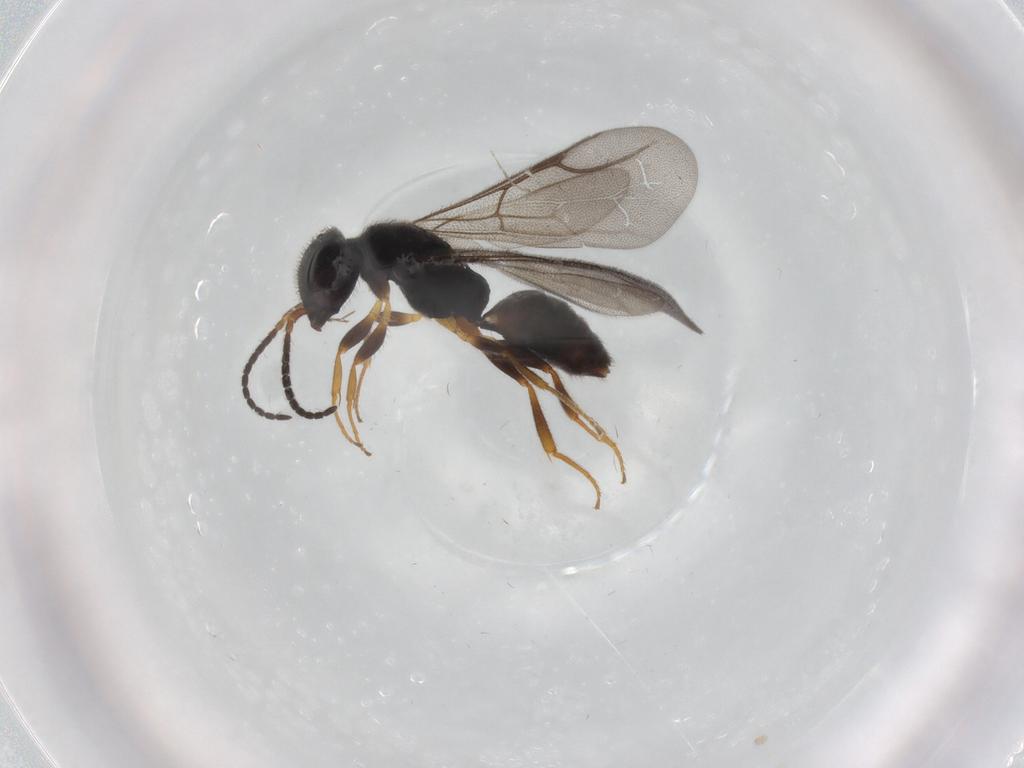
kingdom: Animalia
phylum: Arthropoda
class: Insecta
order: Hymenoptera
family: Bethylidae
